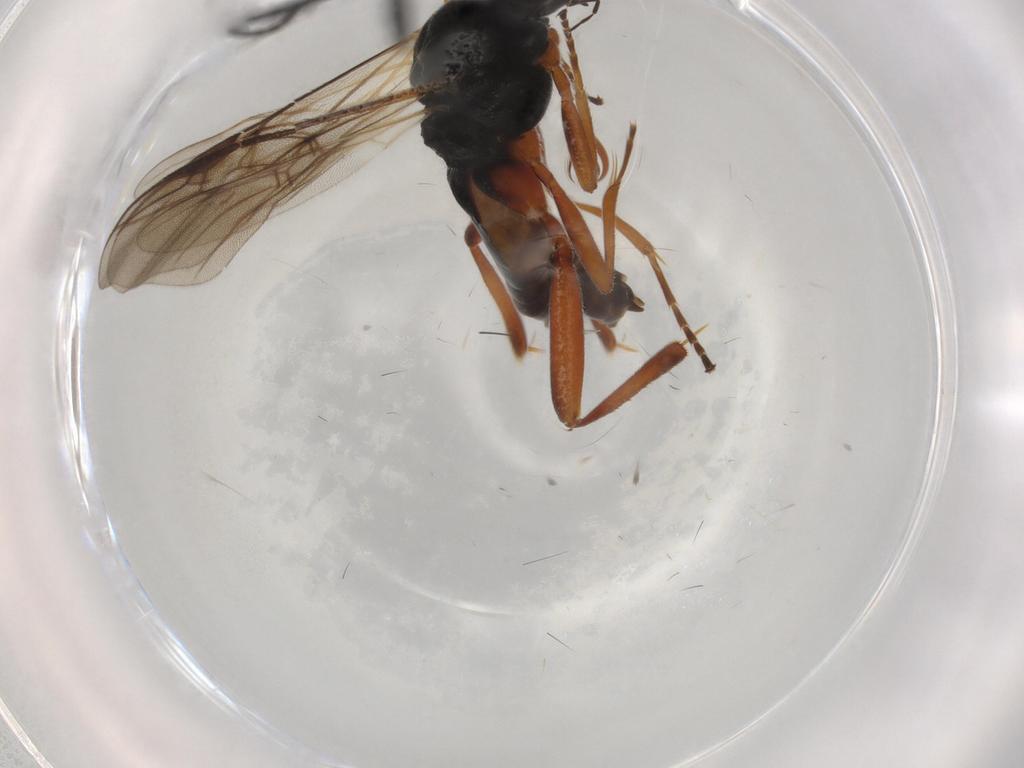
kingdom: Animalia
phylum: Arthropoda
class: Insecta
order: Hymenoptera
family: Braconidae
